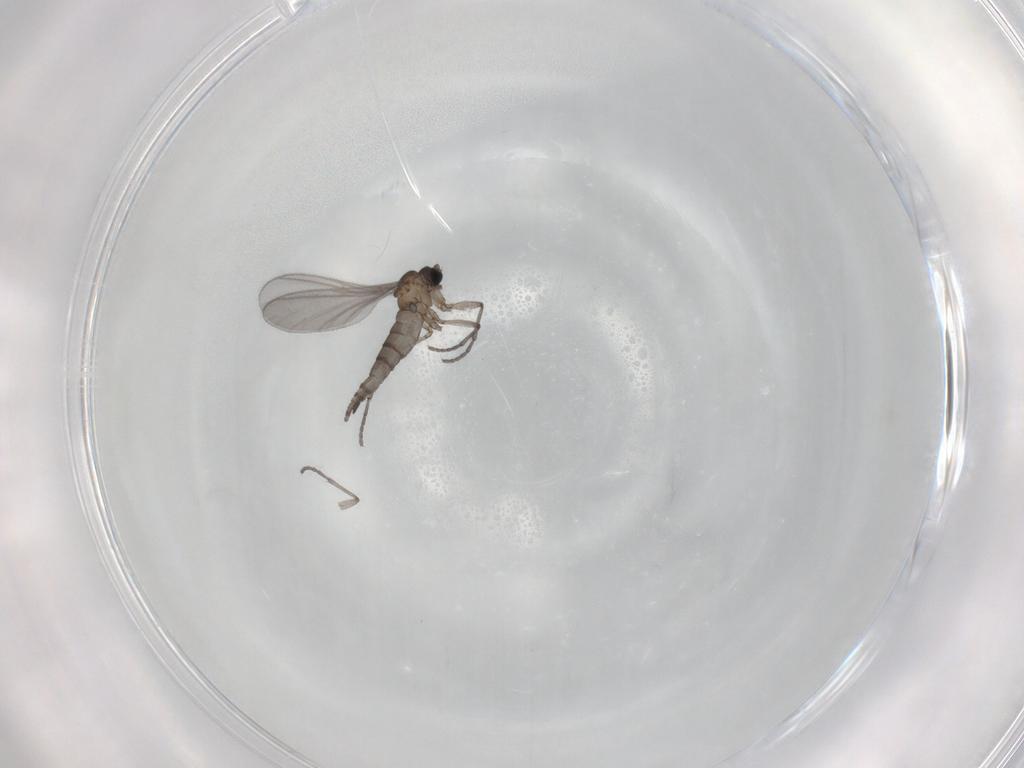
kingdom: Animalia
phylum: Arthropoda
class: Insecta
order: Diptera
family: Sciaridae
